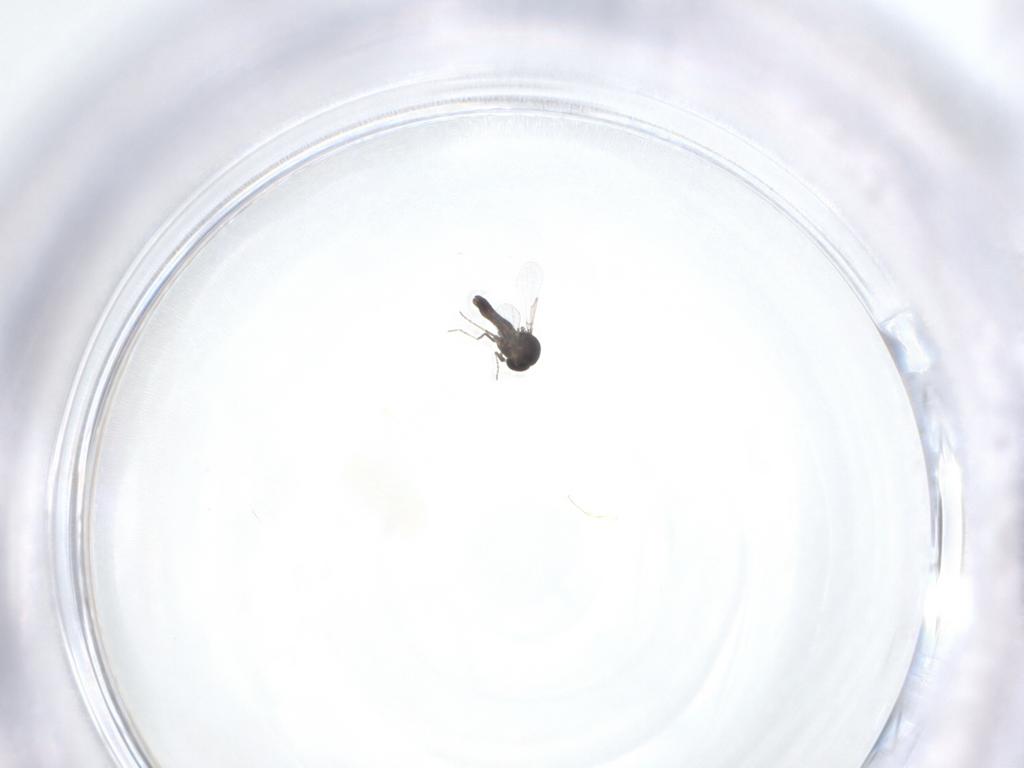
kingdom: Animalia
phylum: Arthropoda
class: Insecta
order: Diptera
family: Ceratopogonidae
